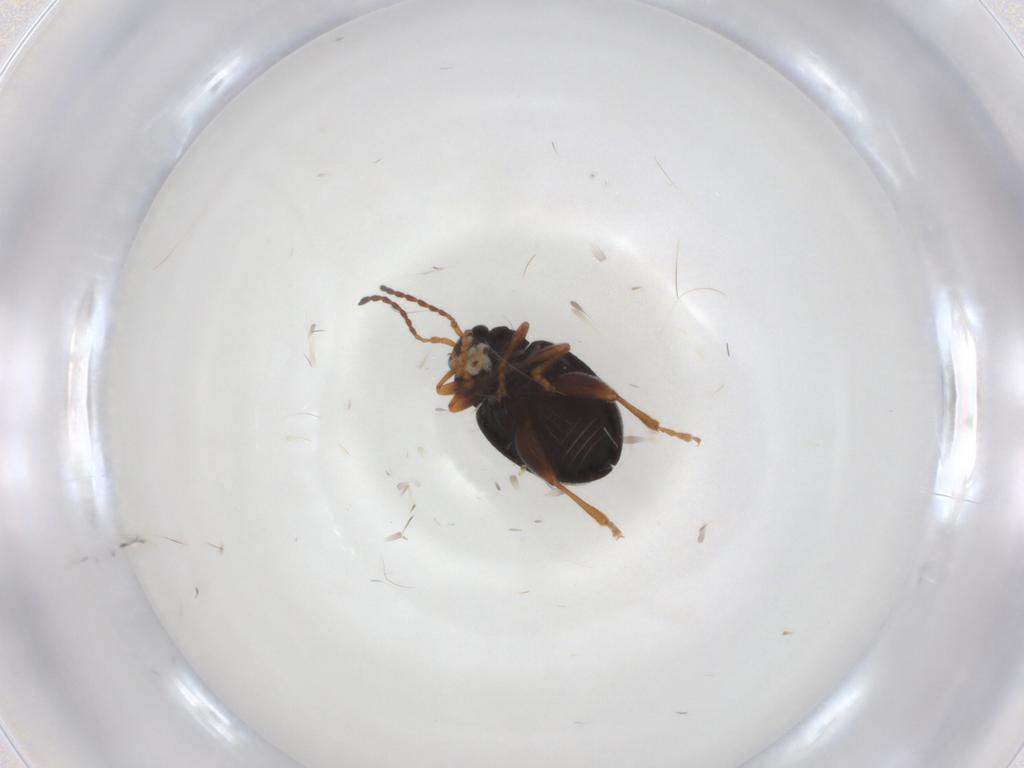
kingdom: Animalia
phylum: Arthropoda
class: Insecta
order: Coleoptera
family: Chrysomelidae
